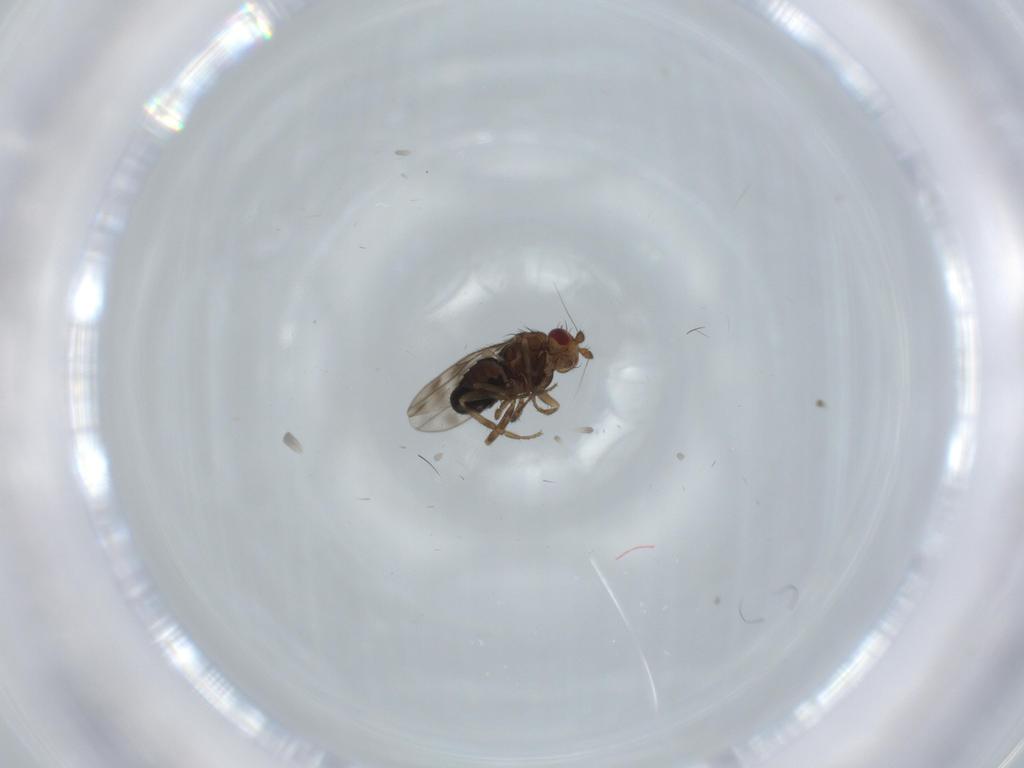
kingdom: Animalia
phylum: Arthropoda
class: Insecta
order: Diptera
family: Sphaeroceridae
